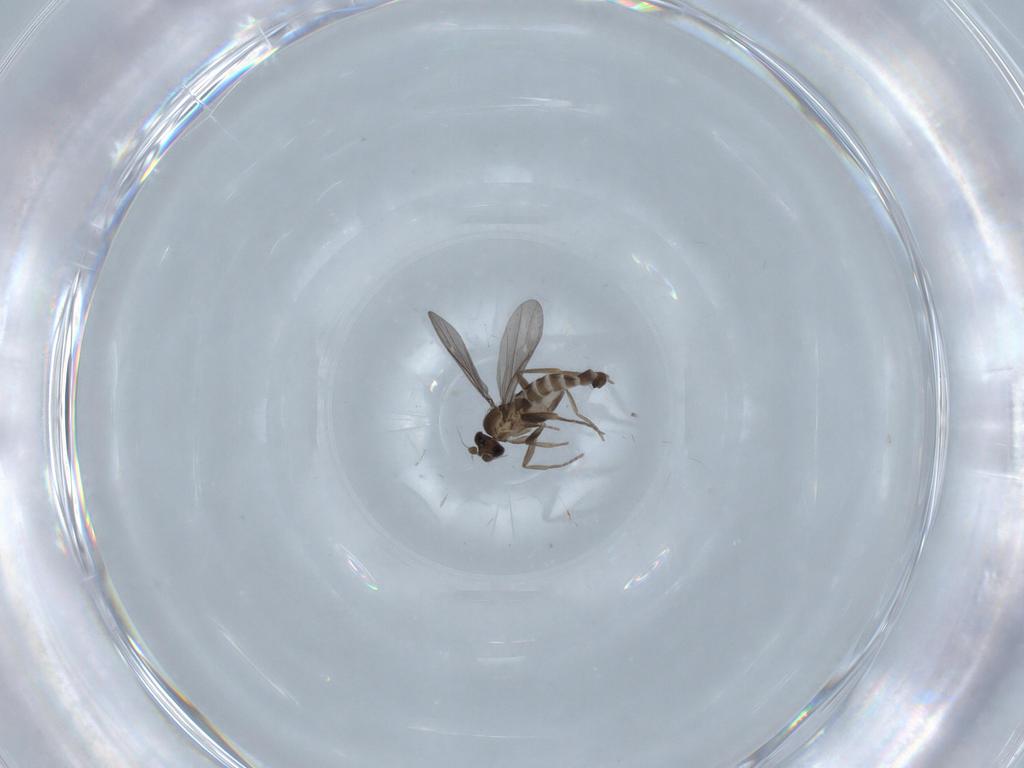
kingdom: Animalia
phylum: Arthropoda
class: Insecta
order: Diptera
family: Phoridae
